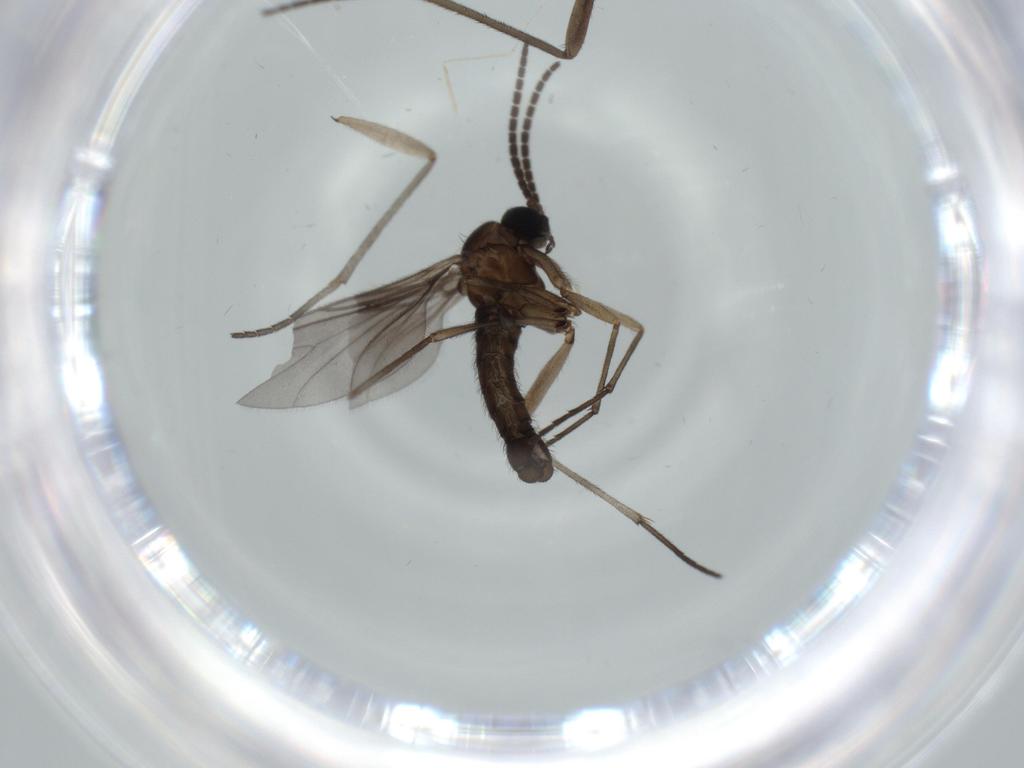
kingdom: Animalia
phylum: Arthropoda
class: Insecta
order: Diptera
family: Sciaridae
